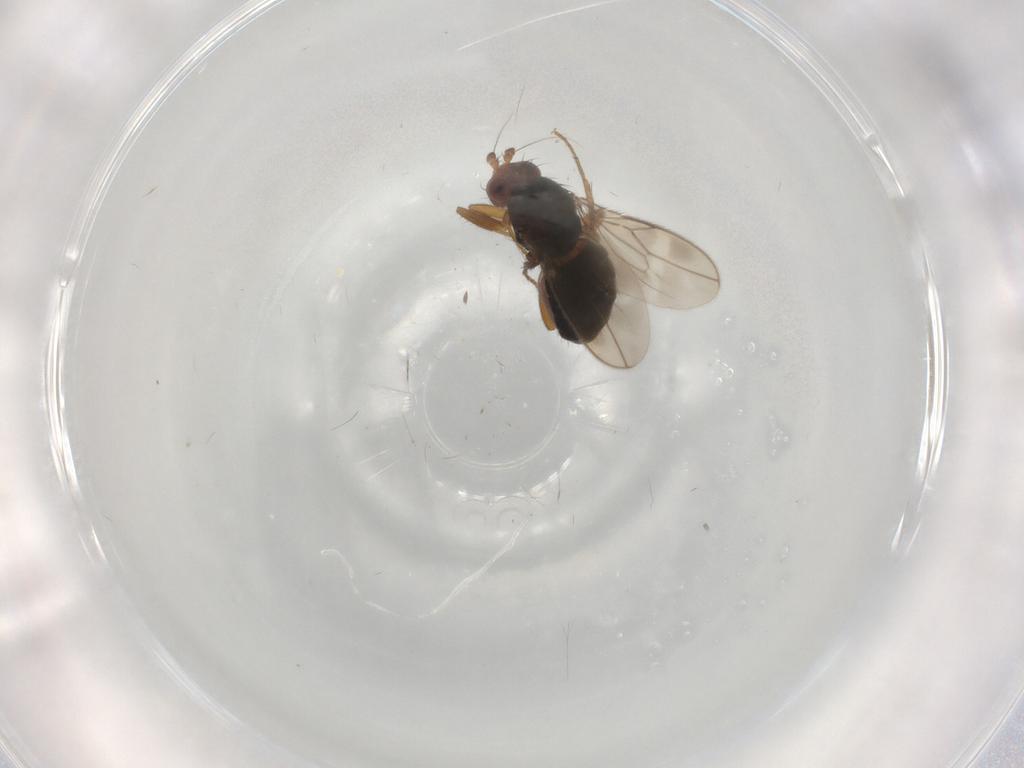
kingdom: Animalia
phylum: Arthropoda
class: Insecta
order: Diptera
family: Sphaeroceridae
